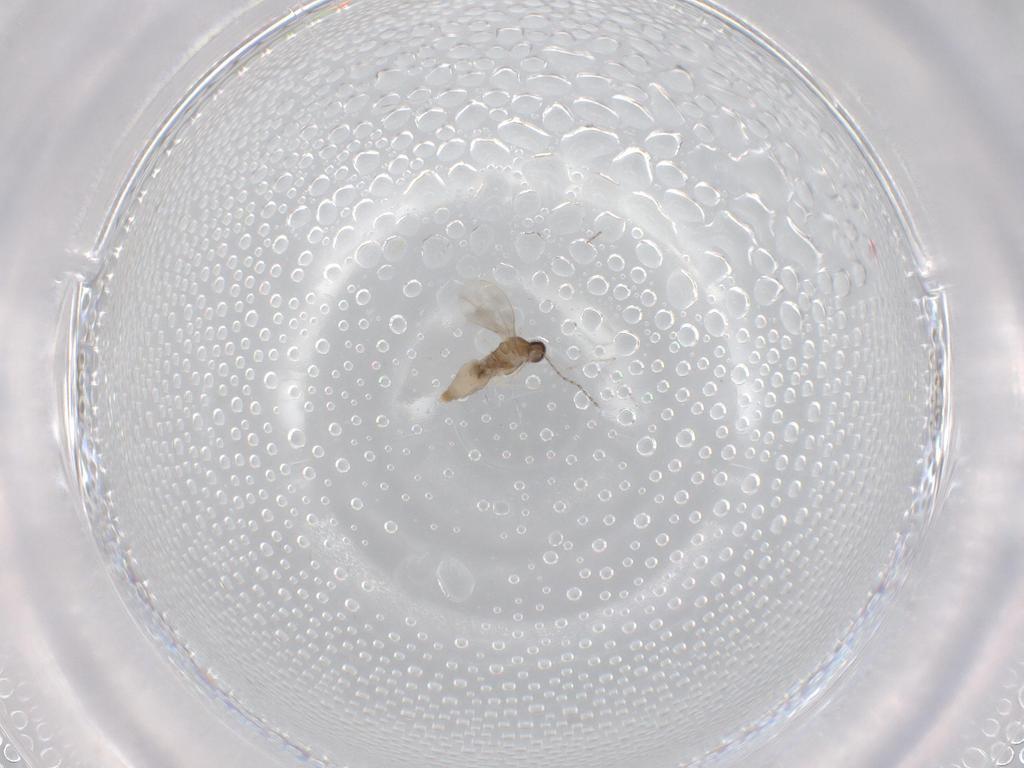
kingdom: Animalia
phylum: Arthropoda
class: Insecta
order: Diptera
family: Cecidomyiidae
